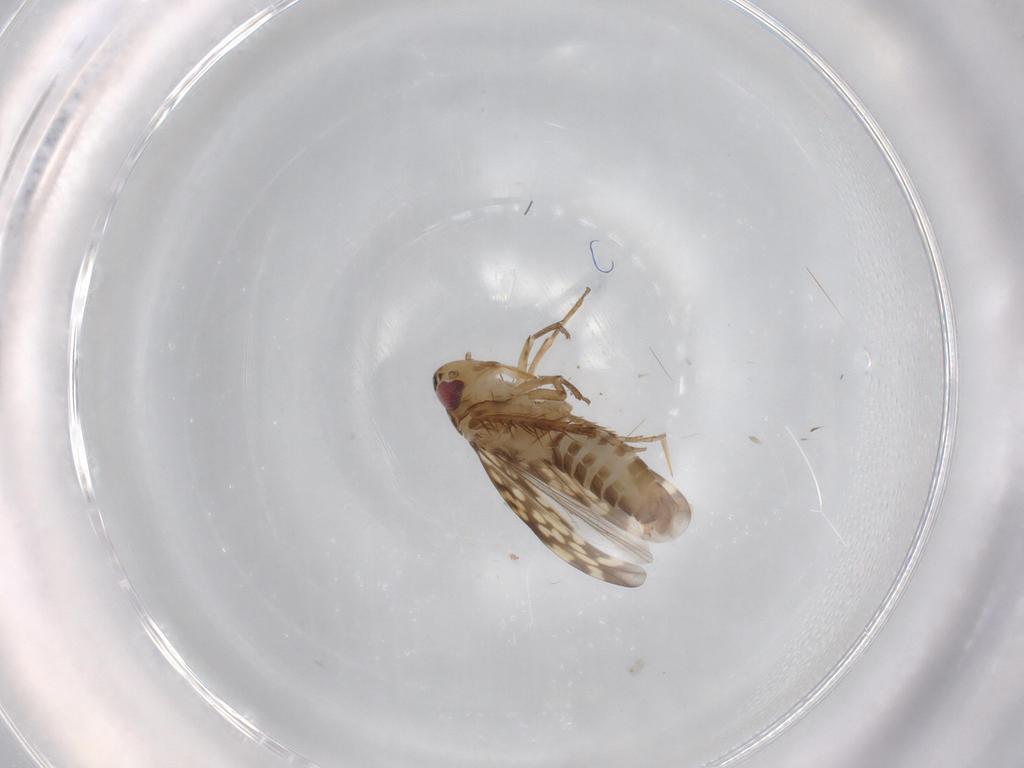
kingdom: Animalia
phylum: Arthropoda
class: Insecta
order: Hemiptera
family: Cicadellidae
